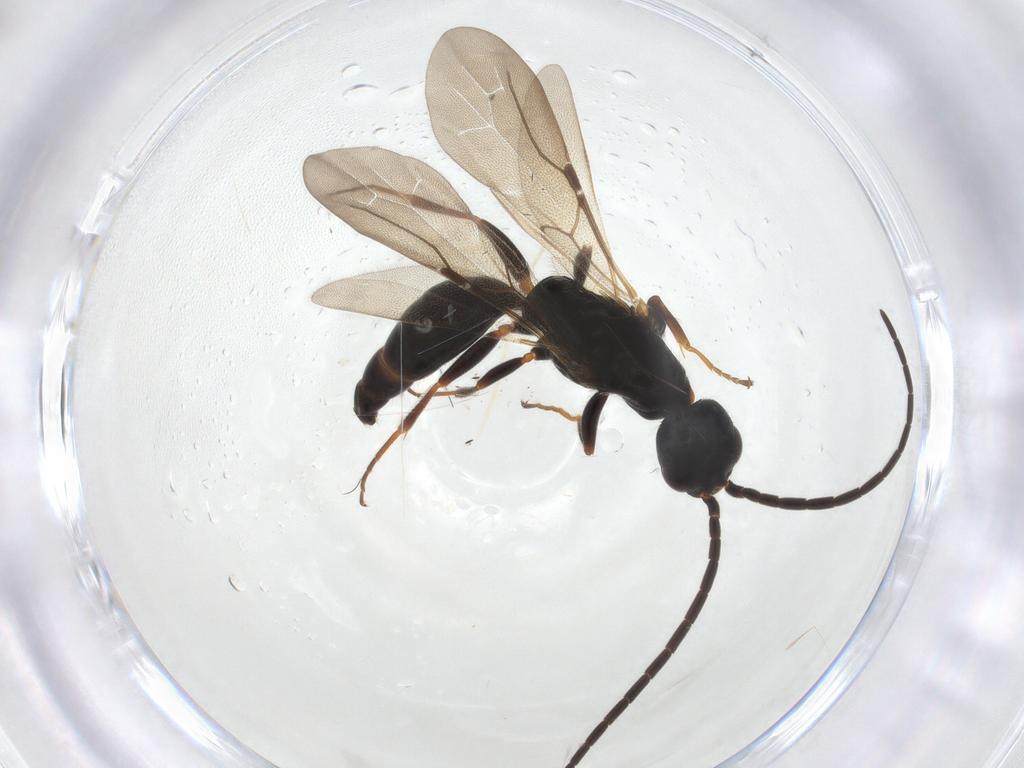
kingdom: Animalia
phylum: Arthropoda
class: Insecta
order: Hymenoptera
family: Bethylidae
